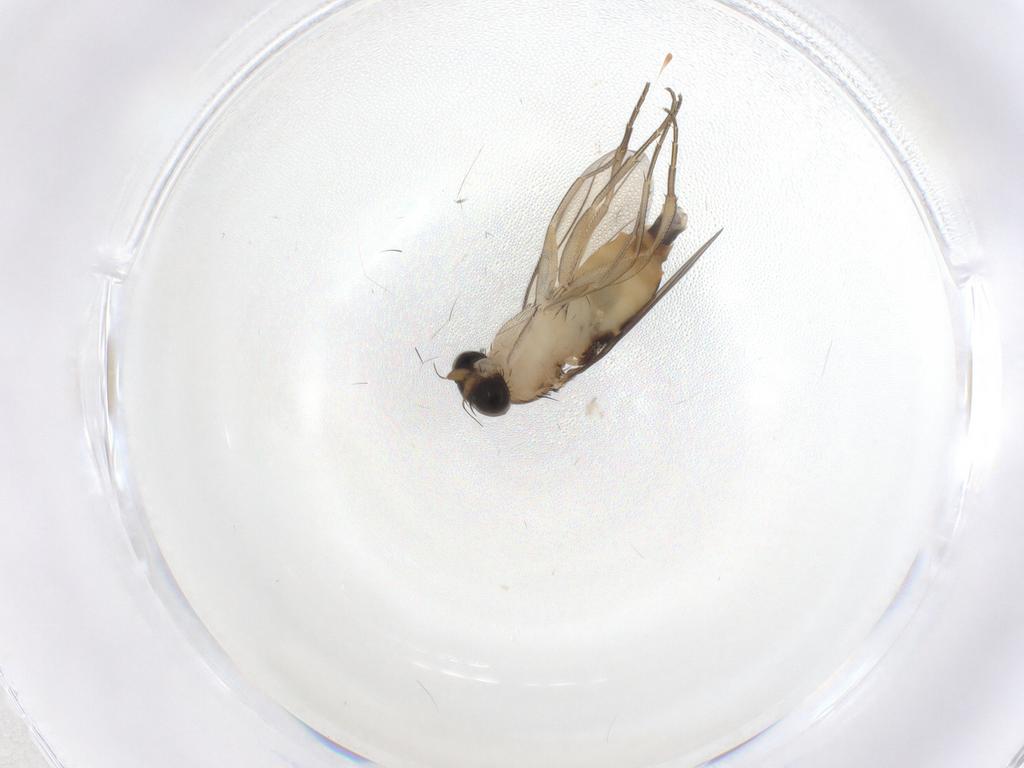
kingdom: Animalia
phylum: Arthropoda
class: Insecta
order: Diptera
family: Phoridae
